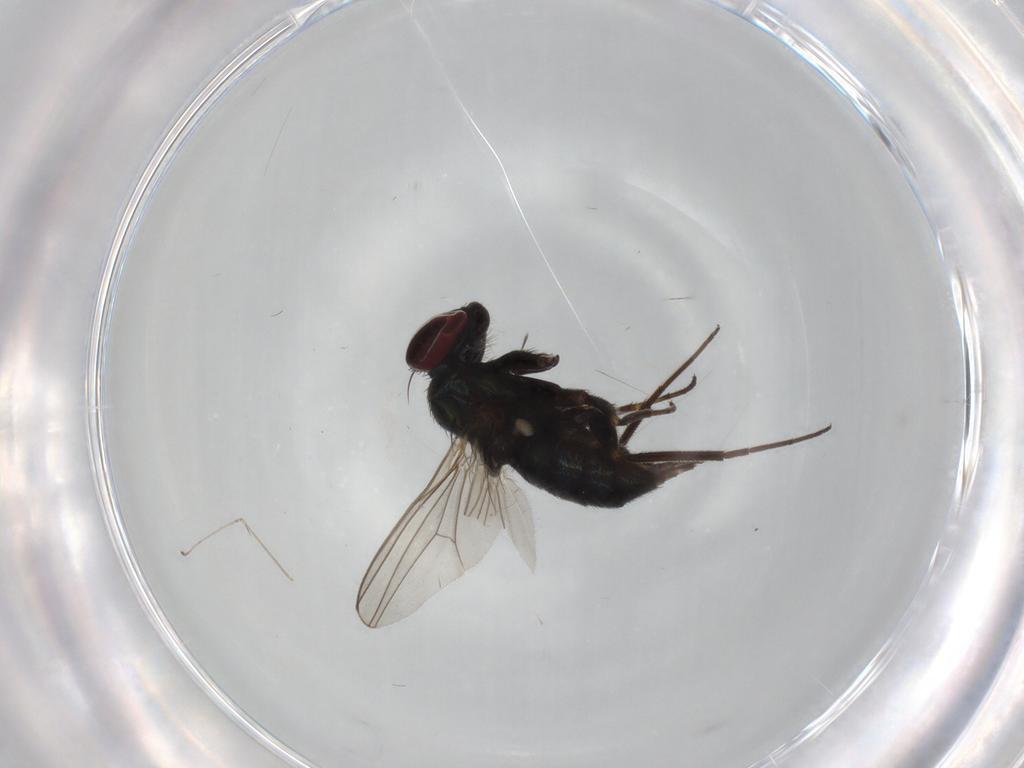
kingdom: Animalia
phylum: Arthropoda
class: Insecta
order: Diptera
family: Dolichopodidae
